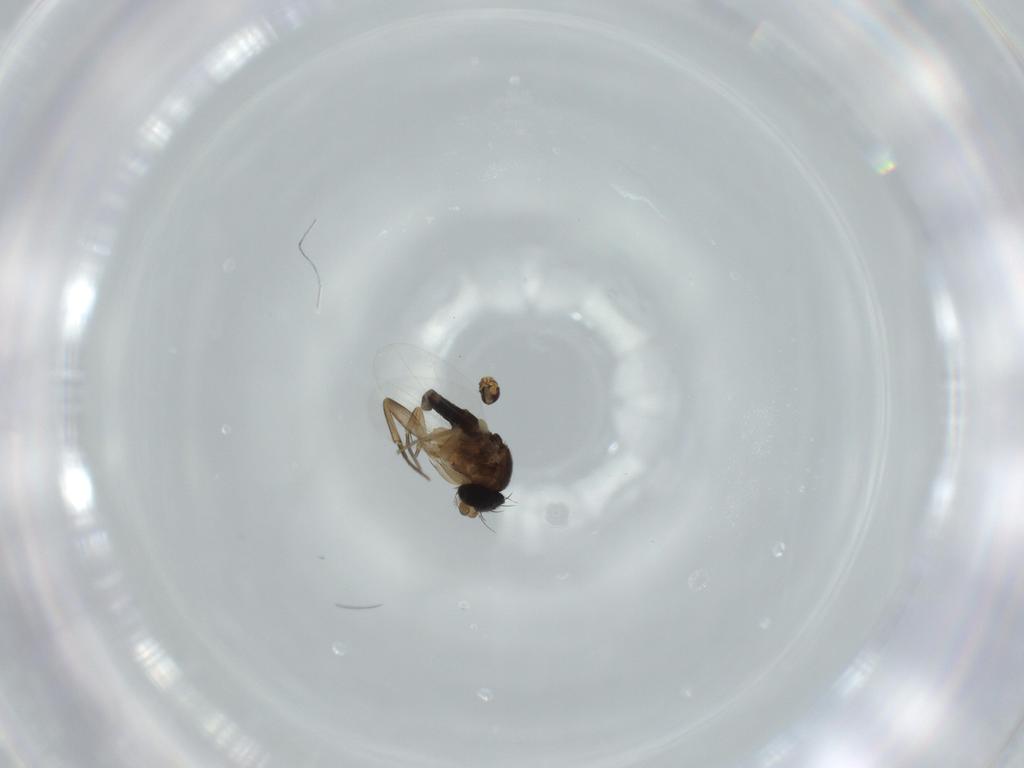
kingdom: Animalia
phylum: Arthropoda
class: Insecta
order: Diptera
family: Phoridae
